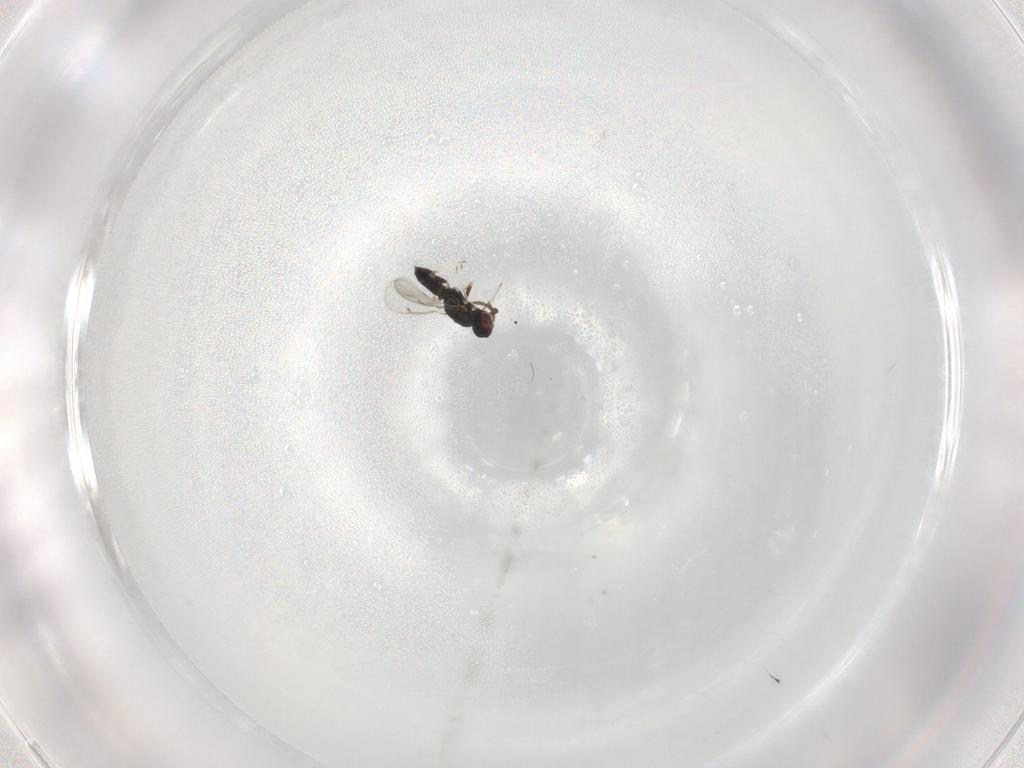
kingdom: Animalia
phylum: Arthropoda
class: Insecta
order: Hymenoptera
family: Eulophidae
